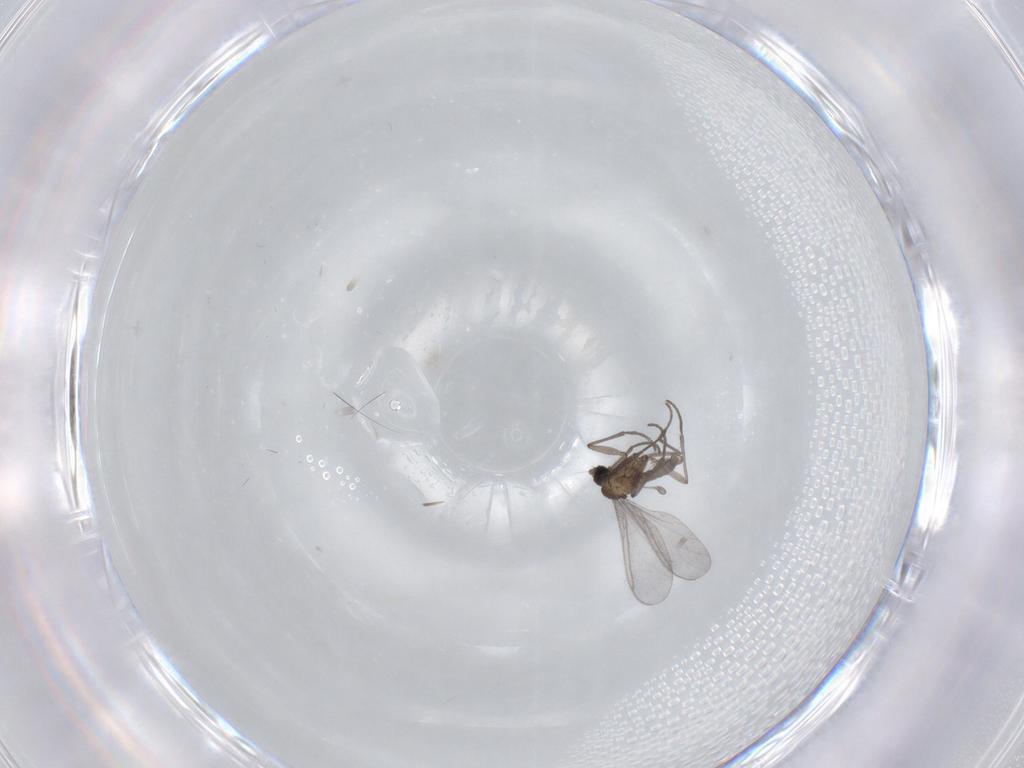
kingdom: Animalia
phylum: Arthropoda
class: Insecta
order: Diptera
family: Sciaridae
